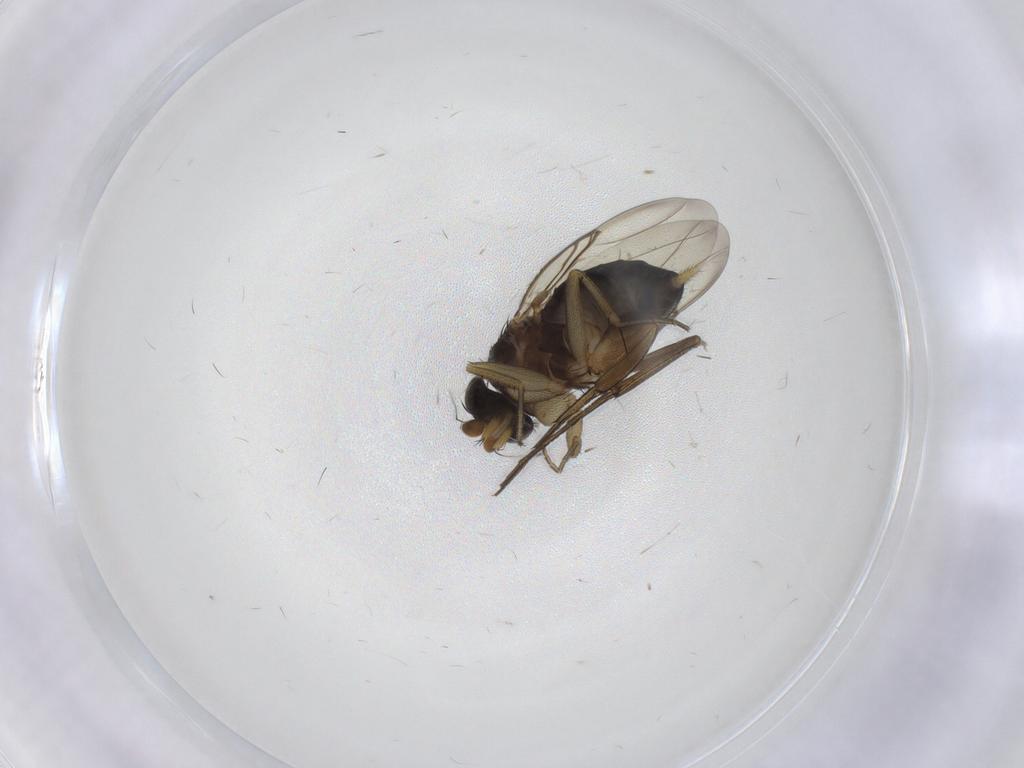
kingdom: Animalia
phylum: Arthropoda
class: Insecta
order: Diptera
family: Phoridae
